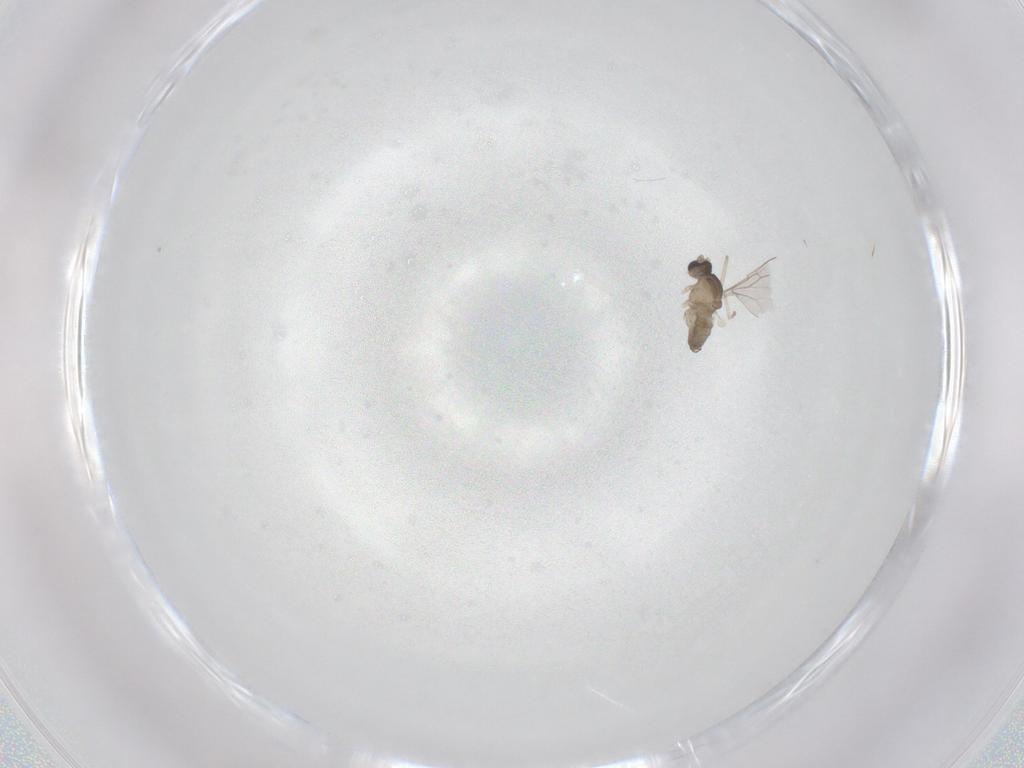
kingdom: Animalia
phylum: Arthropoda
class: Insecta
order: Diptera
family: Cecidomyiidae
